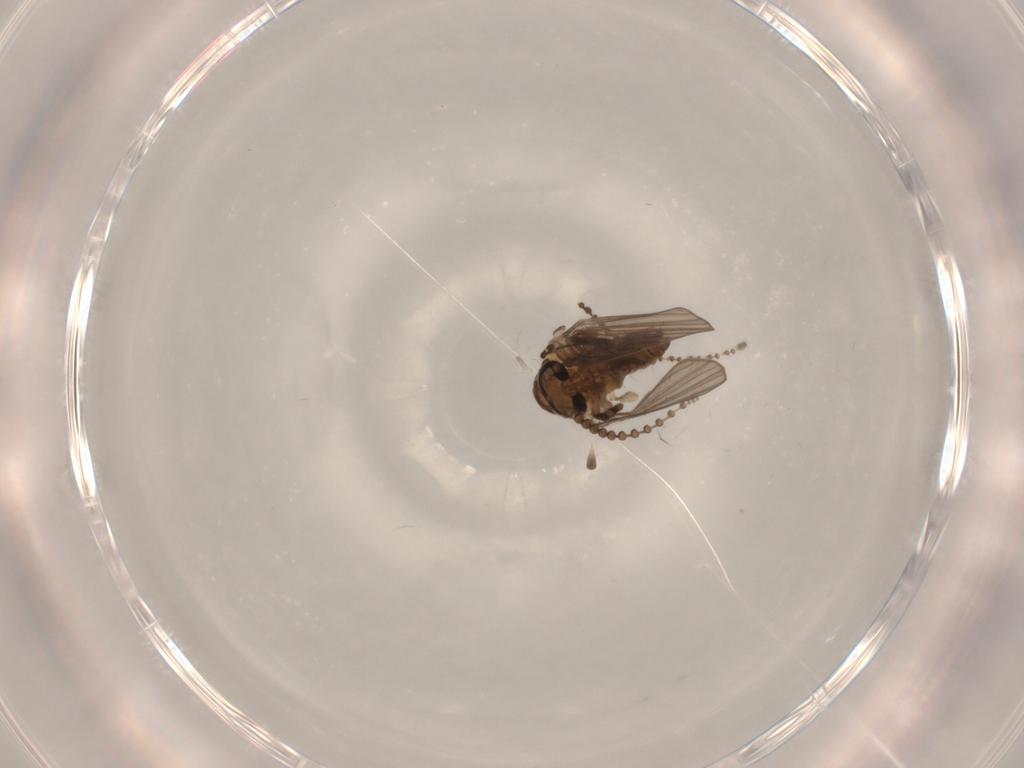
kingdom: Animalia
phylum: Arthropoda
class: Insecta
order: Diptera
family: Psychodidae
